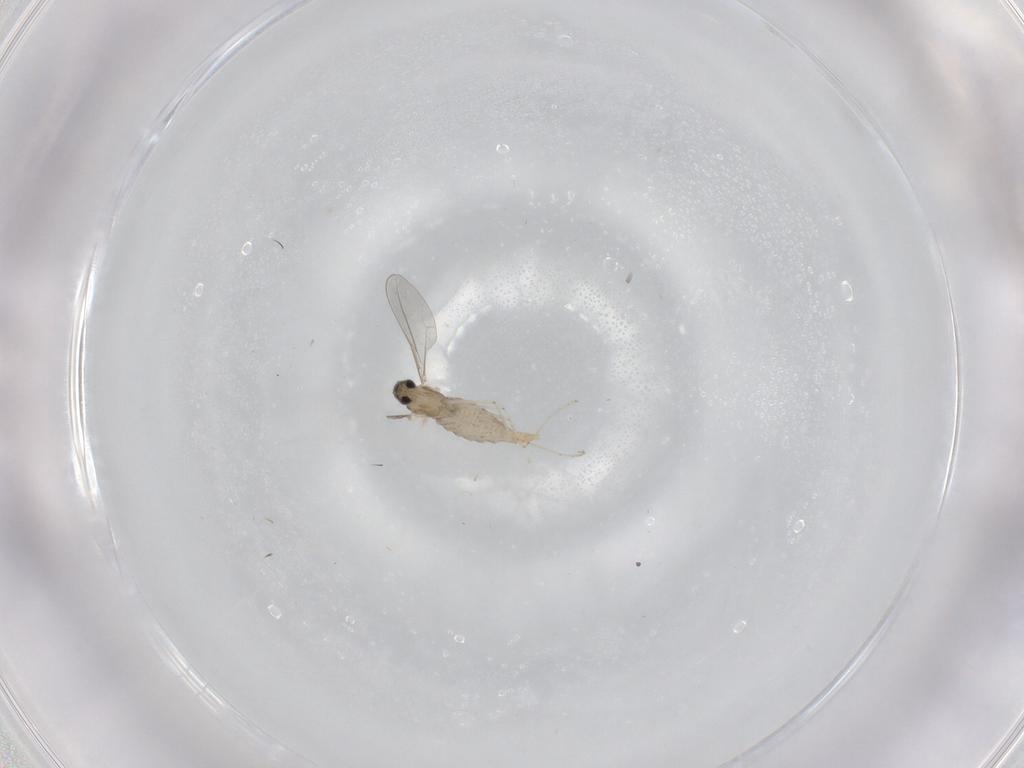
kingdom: Animalia
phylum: Arthropoda
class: Insecta
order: Diptera
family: Cecidomyiidae
